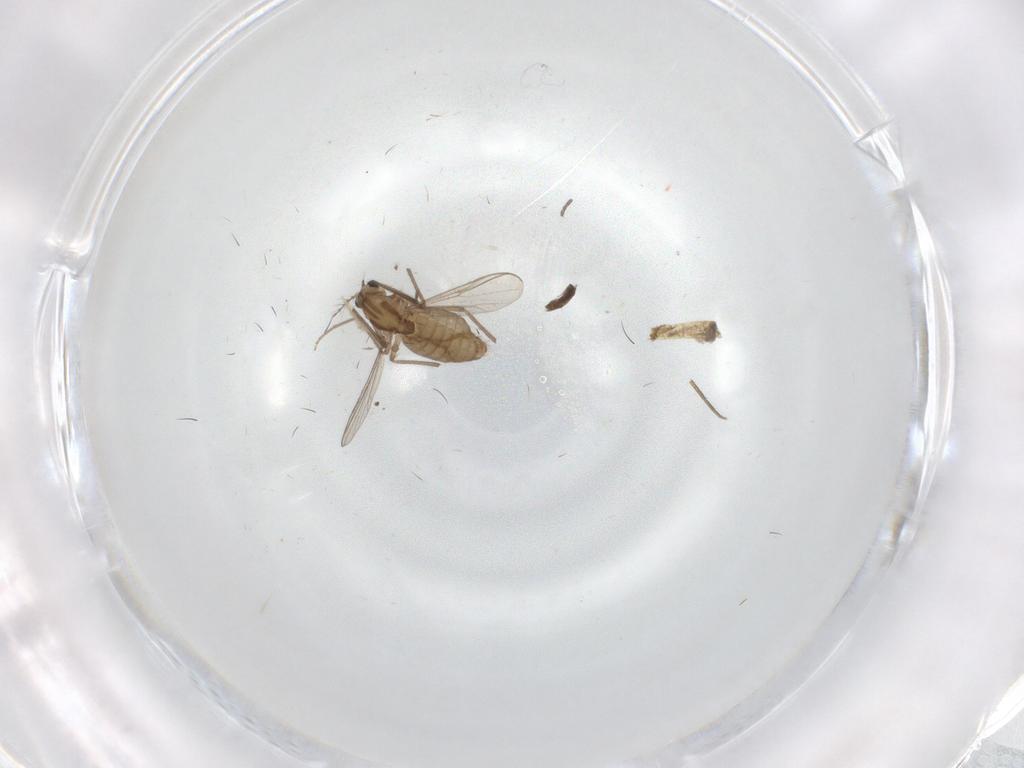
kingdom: Animalia
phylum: Arthropoda
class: Insecta
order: Diptera
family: Chironomidae
